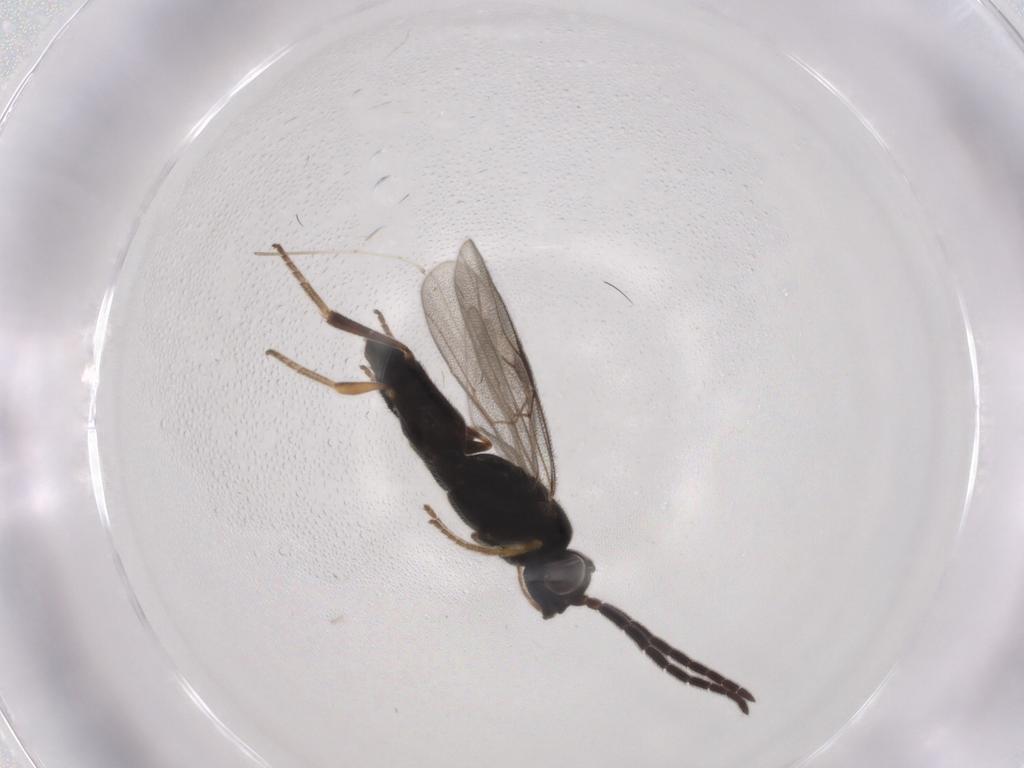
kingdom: Animalia
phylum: Arthropoda
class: Insecta
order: Hymenoptera
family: Dryinidae
